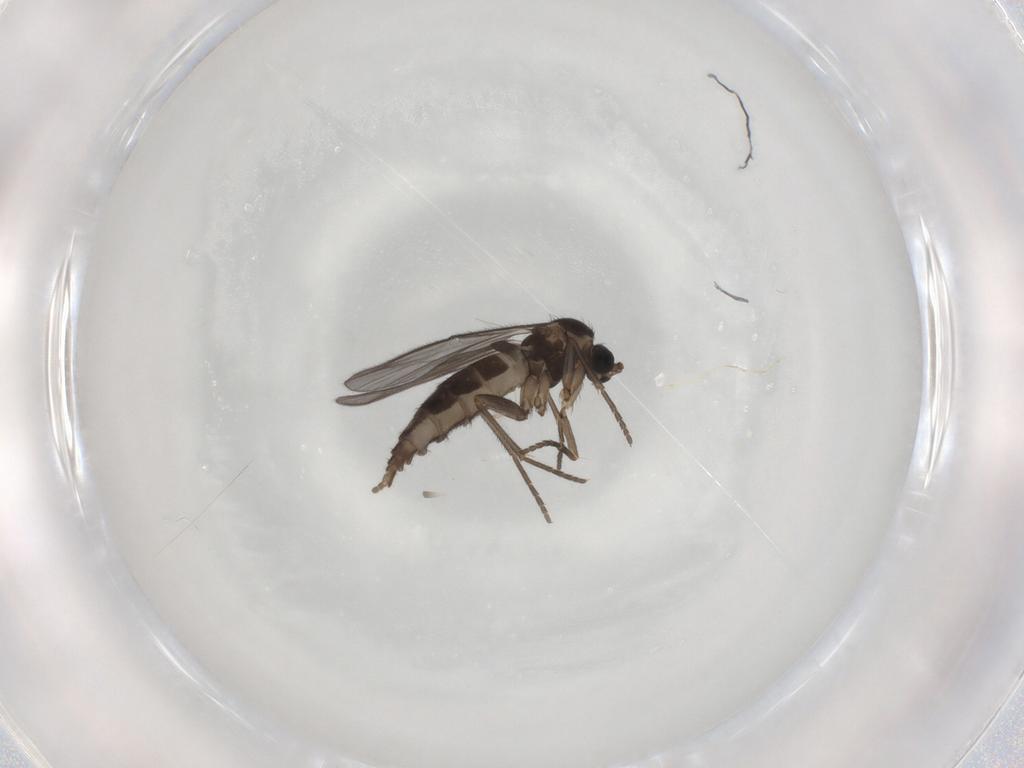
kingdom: Animalia
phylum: Arthropoda
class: Insecta
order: Diptera
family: Sciaridae
